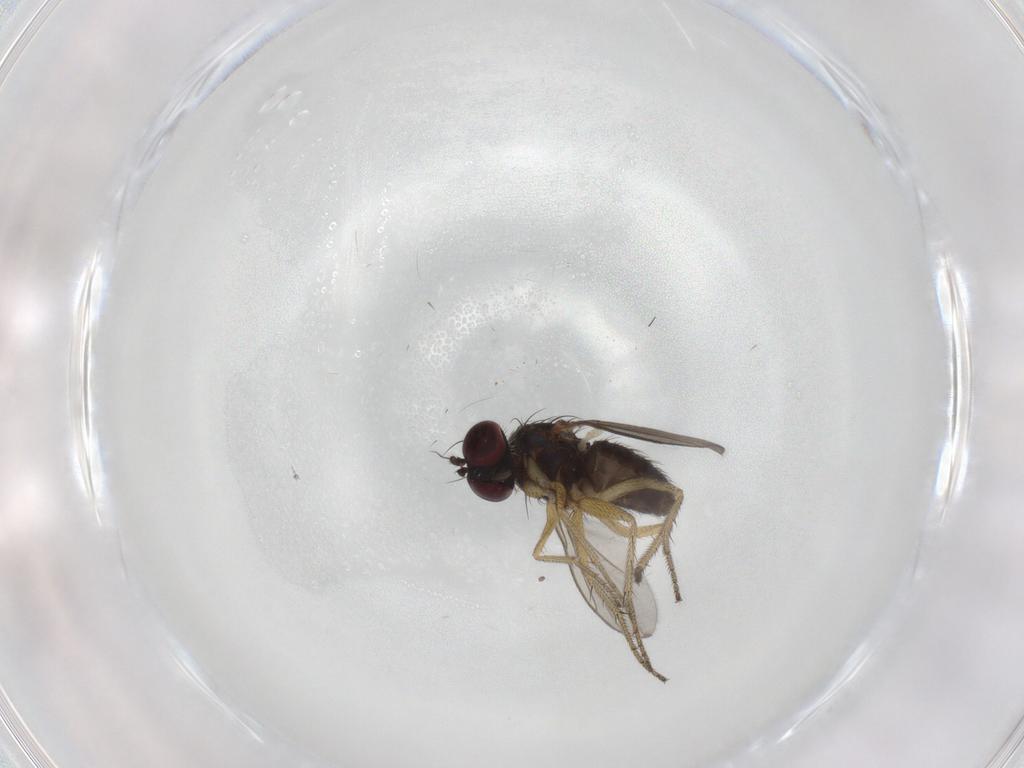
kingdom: Animalia
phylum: Arthropoda
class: Insecta
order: Diptera
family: Dolichopodidae
